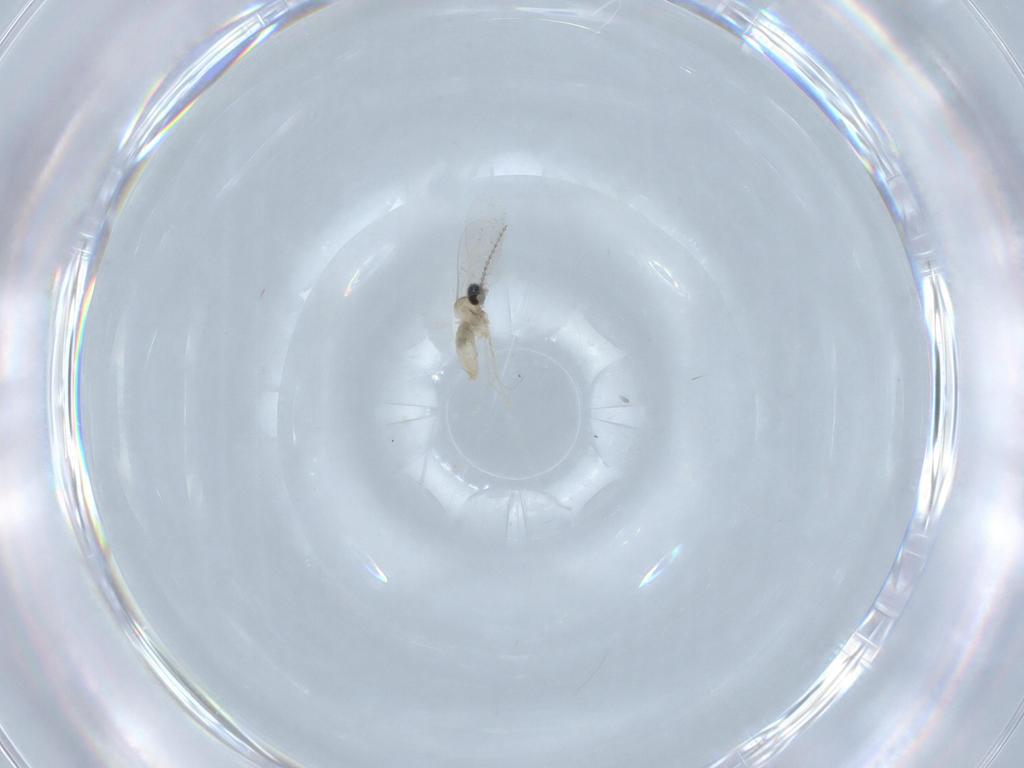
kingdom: Animalia
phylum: Arthropoda
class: Insecta
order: Diptera
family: Cecidomyiidae
